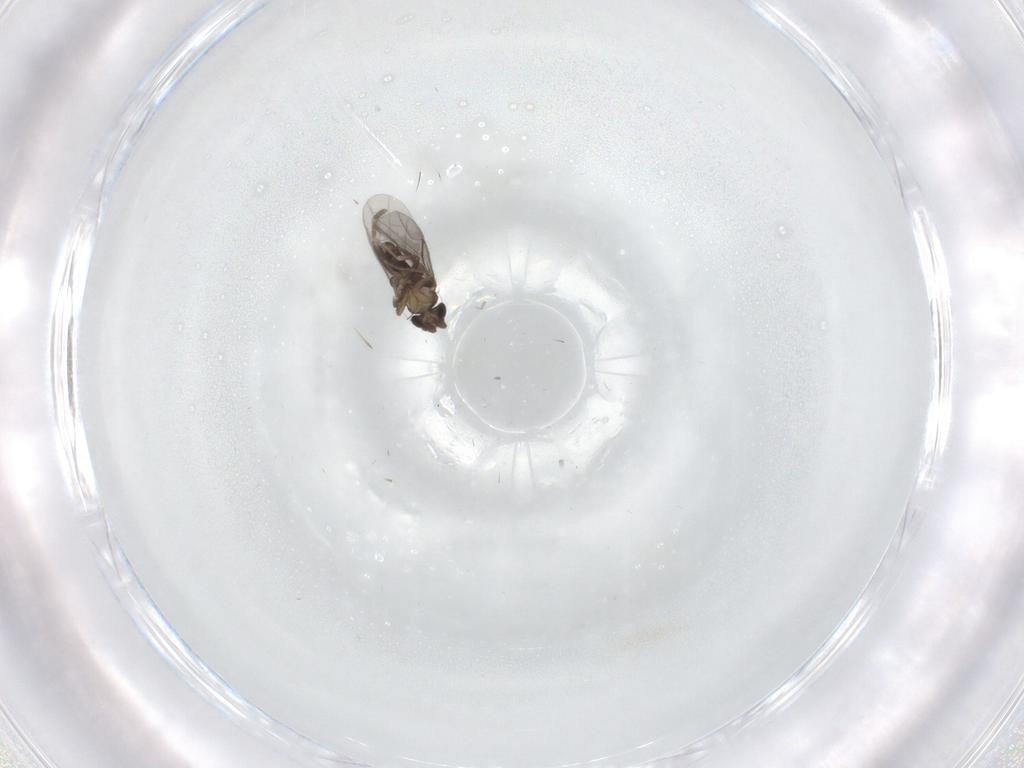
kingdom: Animalia
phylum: Arthropoda
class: Insecta
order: Diptera
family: Cecidomyiidae
